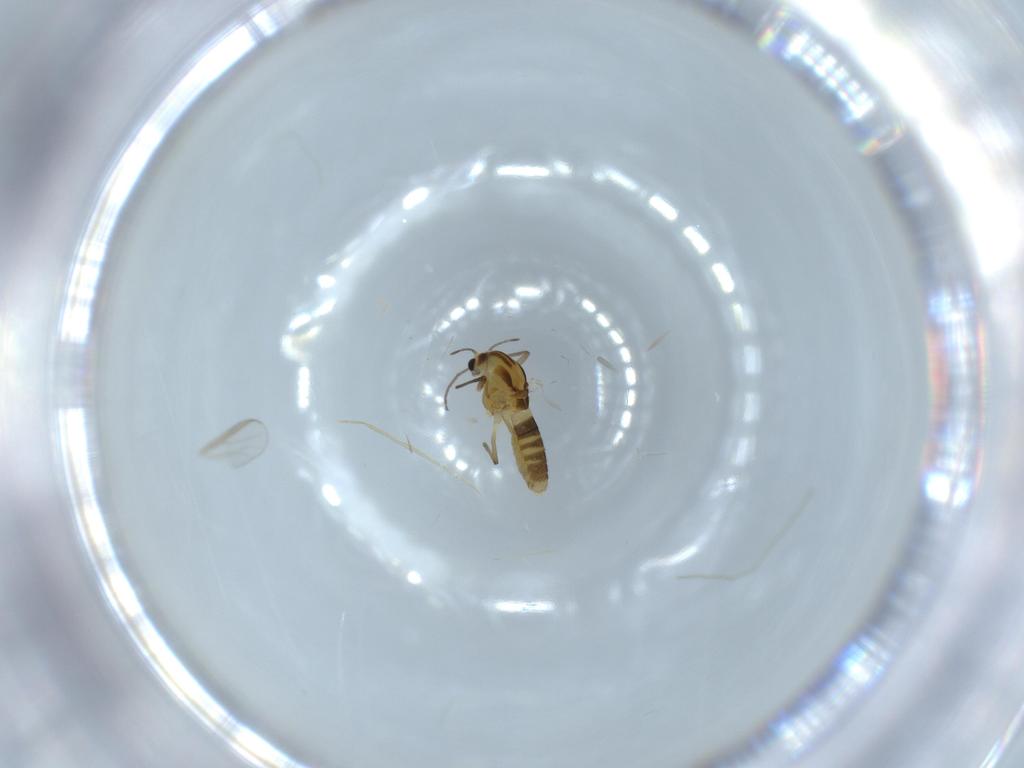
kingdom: Animalia
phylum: Arthropoda
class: Insecta
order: Diptera
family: Chironomidae
